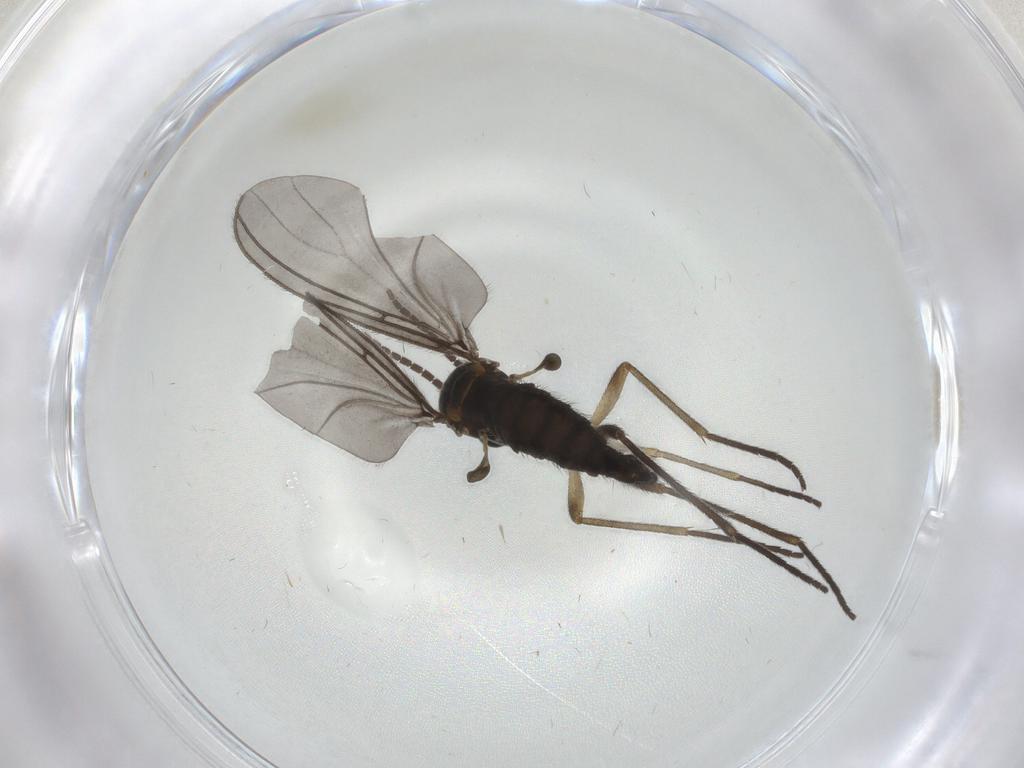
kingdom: Animalia
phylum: Arthropoda
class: Insecta
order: Diptera
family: Sciaridae
